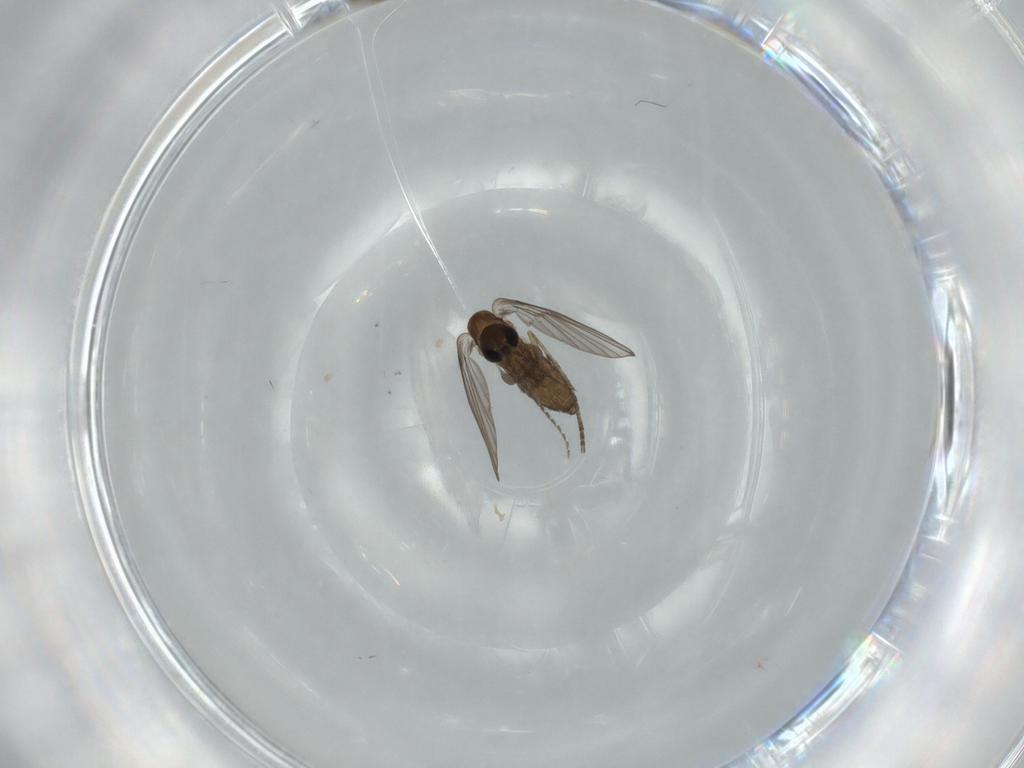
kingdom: Animalia
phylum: Arthropoda
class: Insecta
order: Diptera
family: Psychodidae
